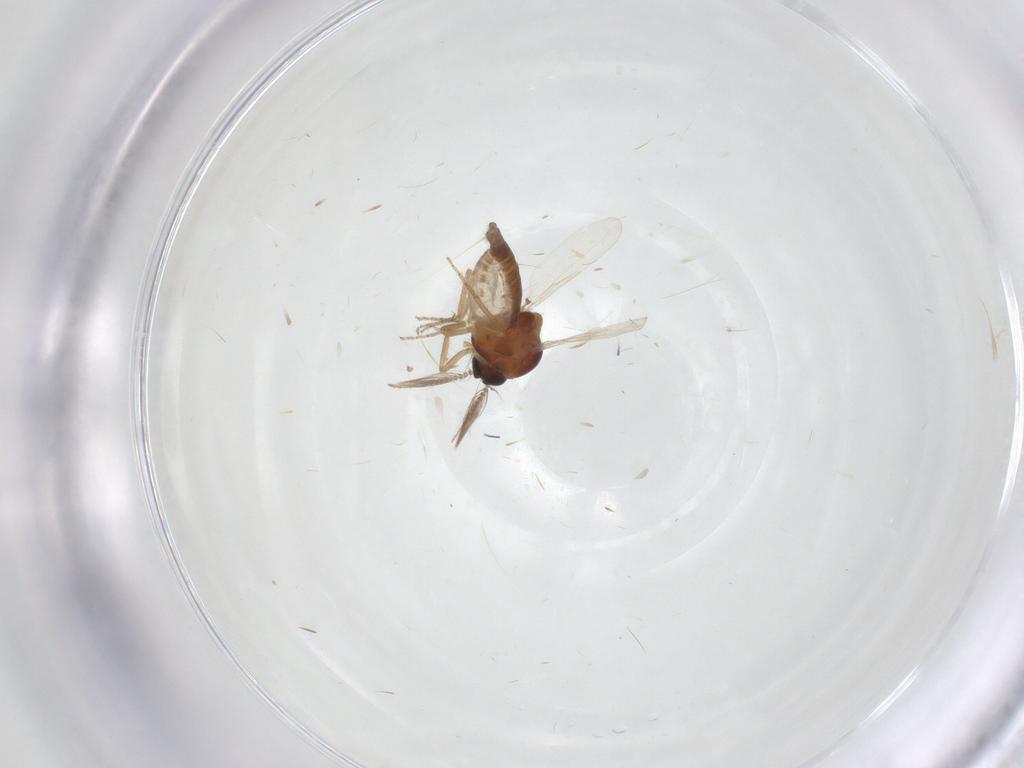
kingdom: Animalia
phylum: Arthropoda
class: Insecta
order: Diptera
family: Ceratopogonidae
